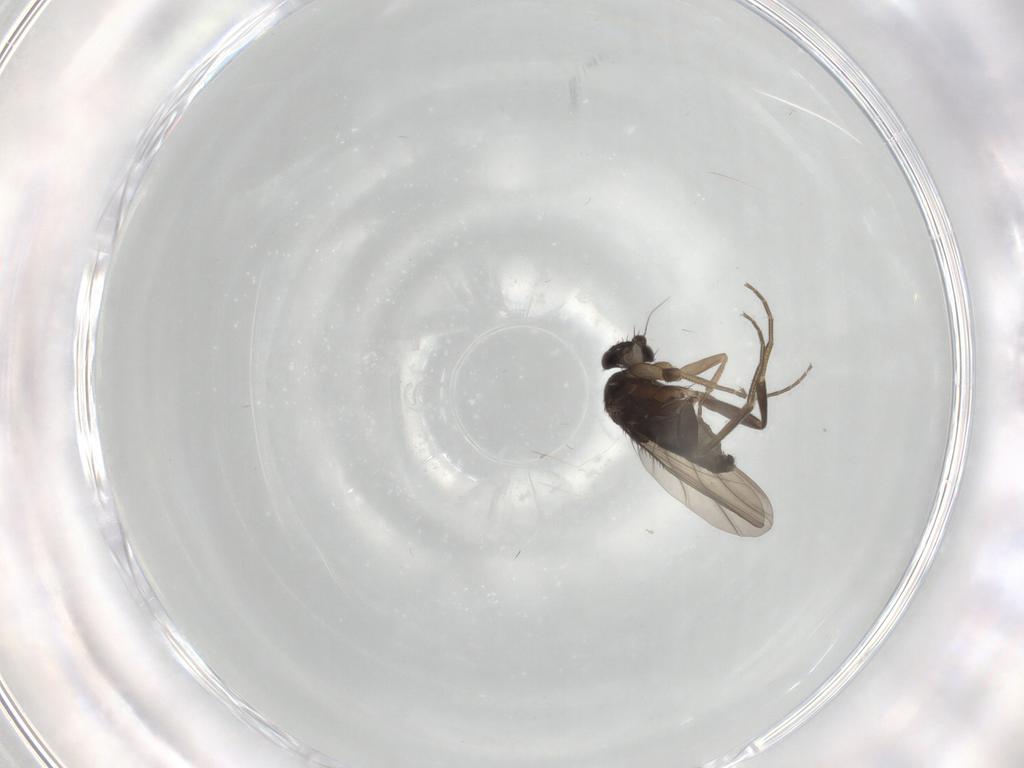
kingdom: Animalia
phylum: Arthropoda
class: Insecta
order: Diptera
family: Phoridae
